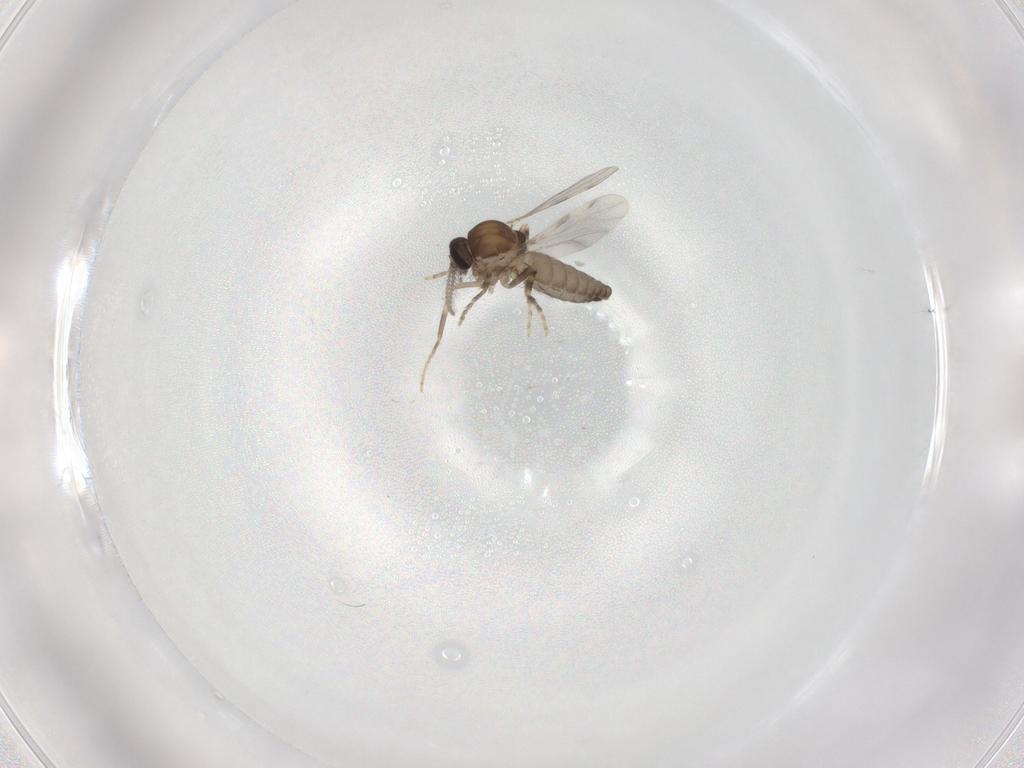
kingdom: Animalia
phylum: Arthropoda
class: Insecta
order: Diptera
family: Ceratopogonidae
